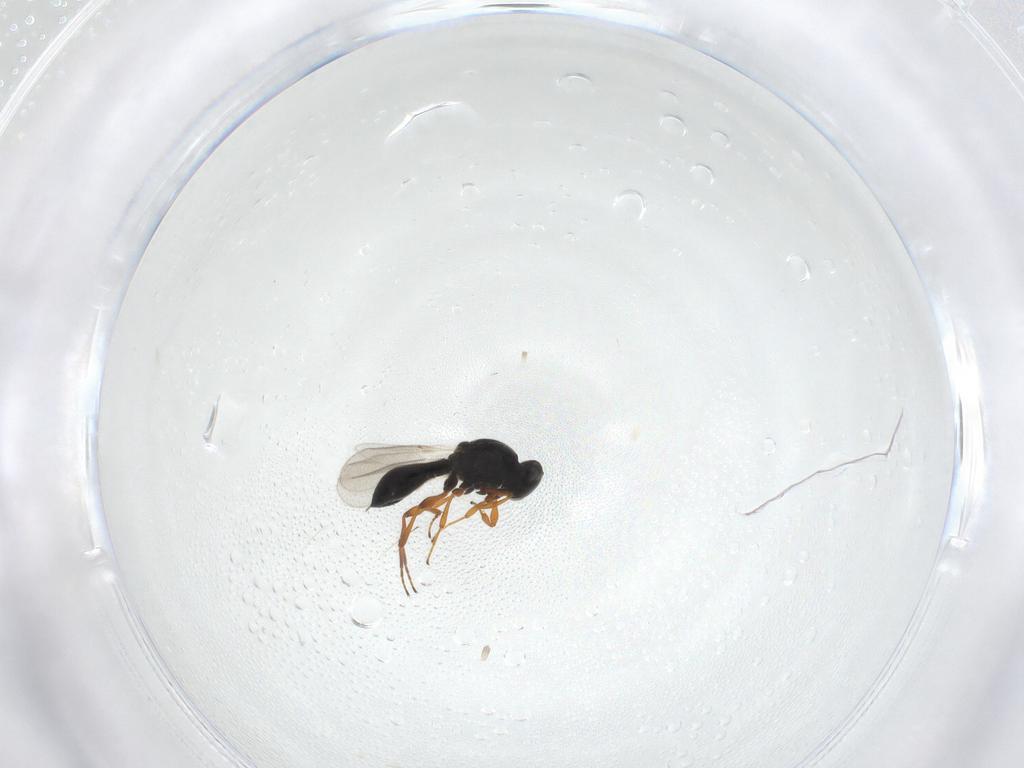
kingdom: Animalia
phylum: Arthropoda
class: Insecta
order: Hymenoptera
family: Platygastridae
